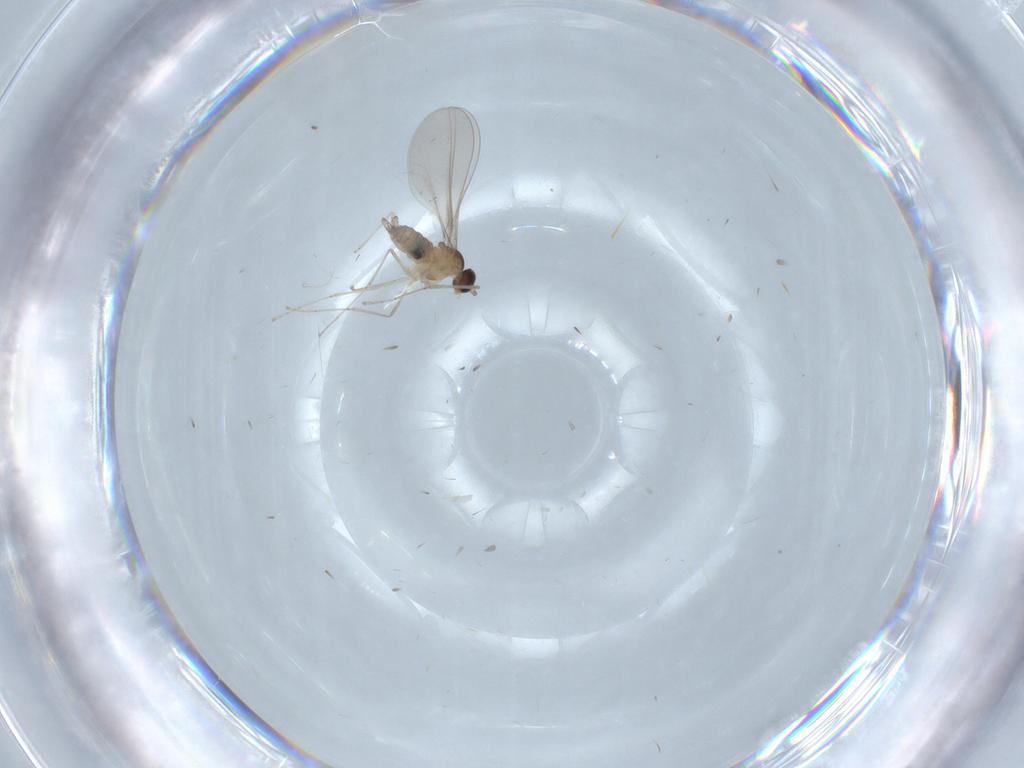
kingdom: Animalia
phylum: Arthropoda
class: Insecta
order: Diptera
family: Cecidomyiidae
